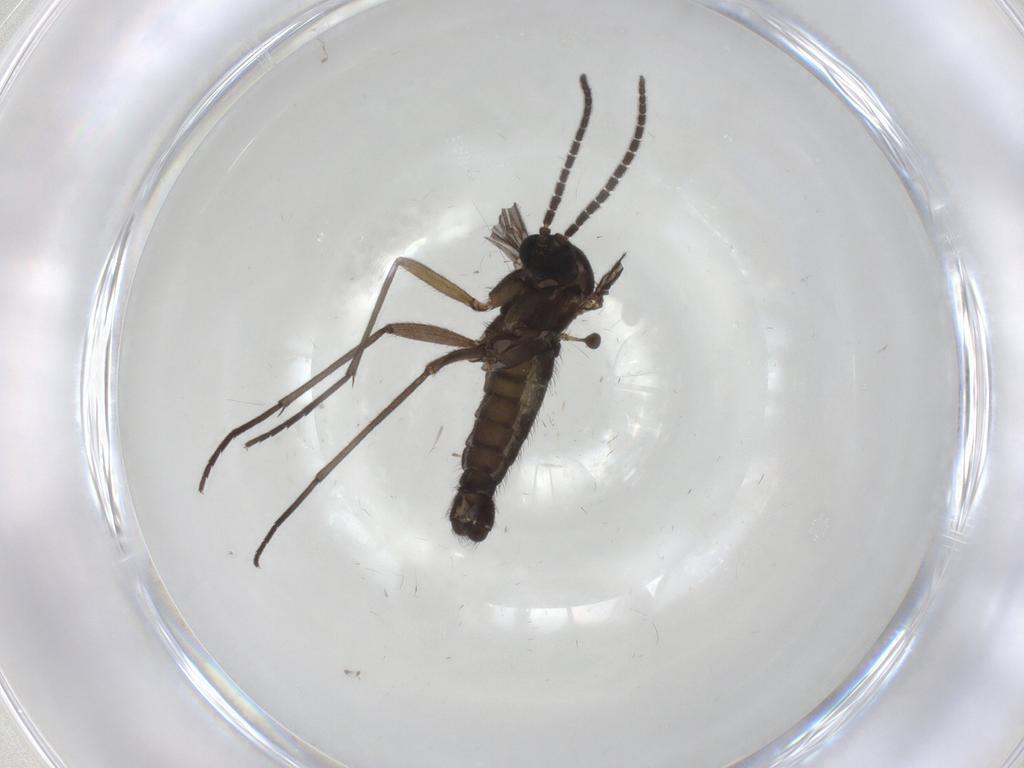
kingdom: Animalia
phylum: Arthropoda
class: Insecta
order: Diptera
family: Sciaridae
